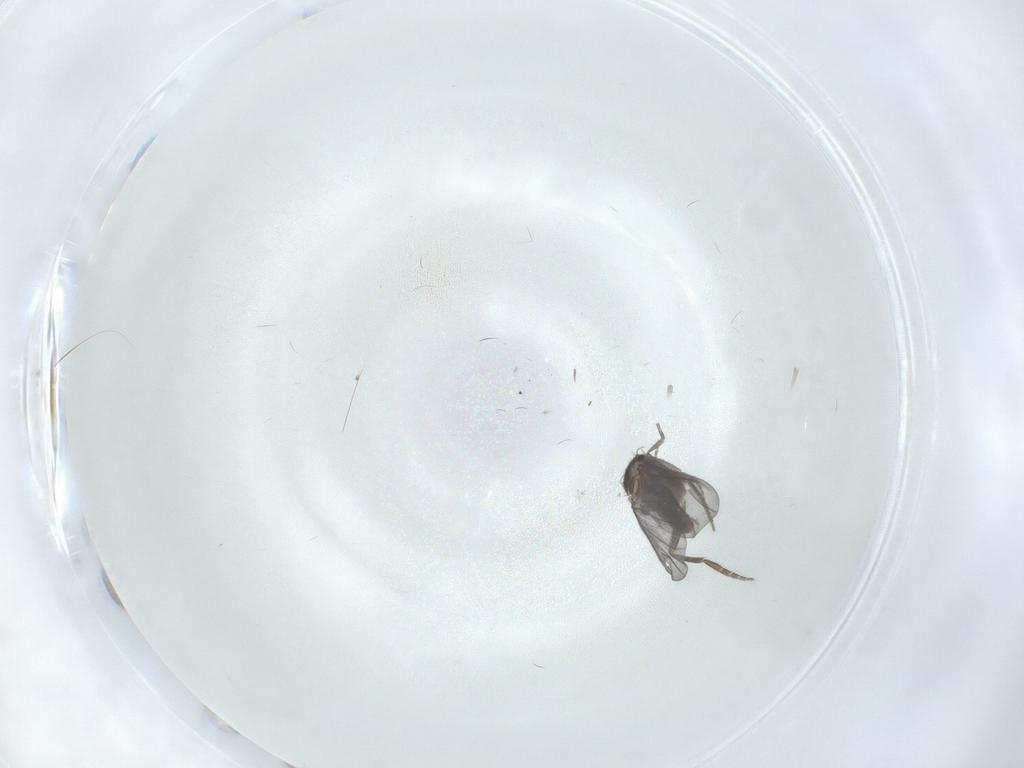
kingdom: Animalia
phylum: Arthropoda
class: Insecta
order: Diptera
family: Phoridae
